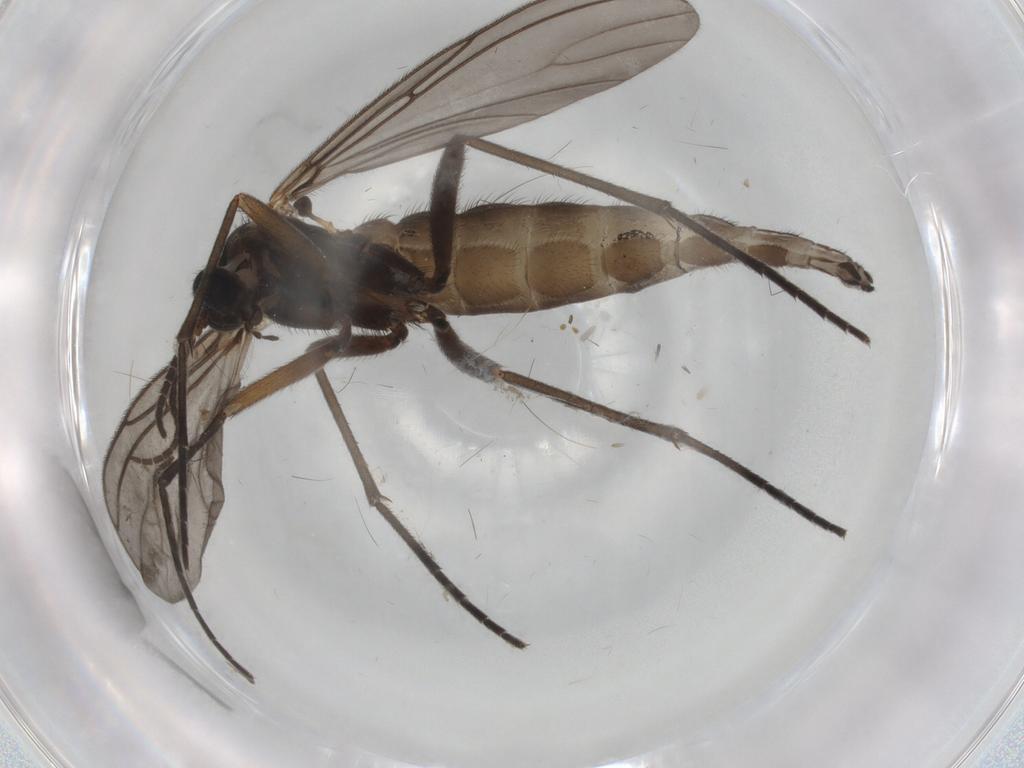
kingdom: Animalia
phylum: Arthropoda
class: Insecta
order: Diptera
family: Sciaridae
